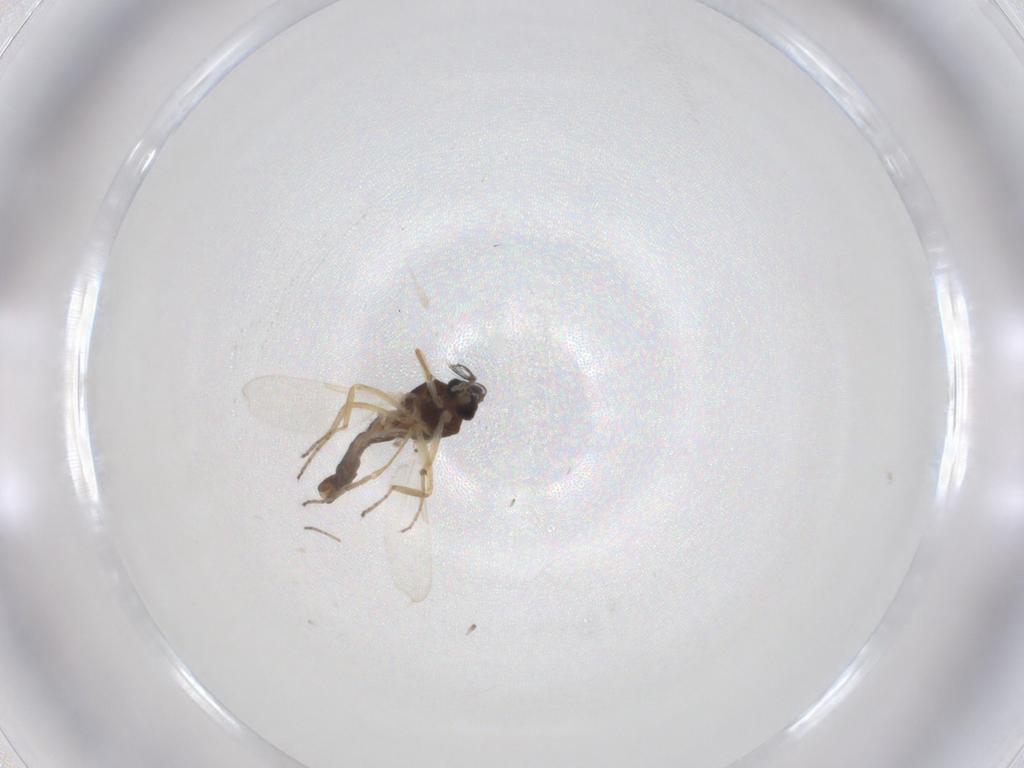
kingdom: Animalia
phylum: Arthropoda
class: Insecta
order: Diptera
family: Ceratopogonidae
